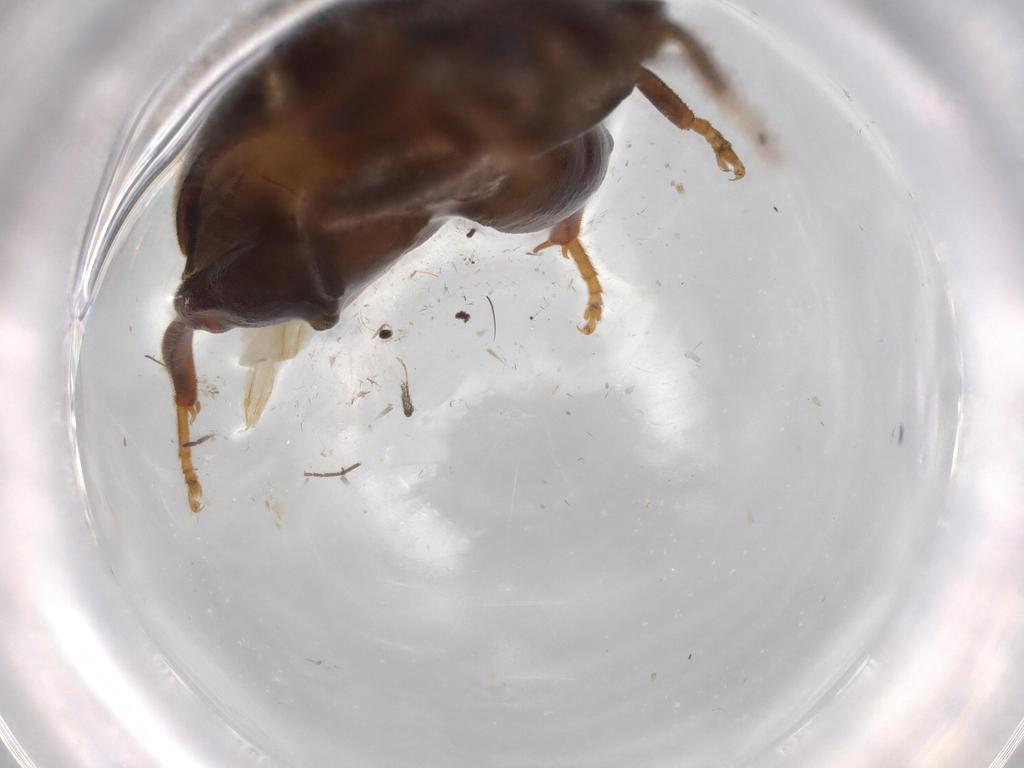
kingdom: Animalia
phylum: Arthropoda
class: Insecta
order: Coleoptera
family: Scirtidae
